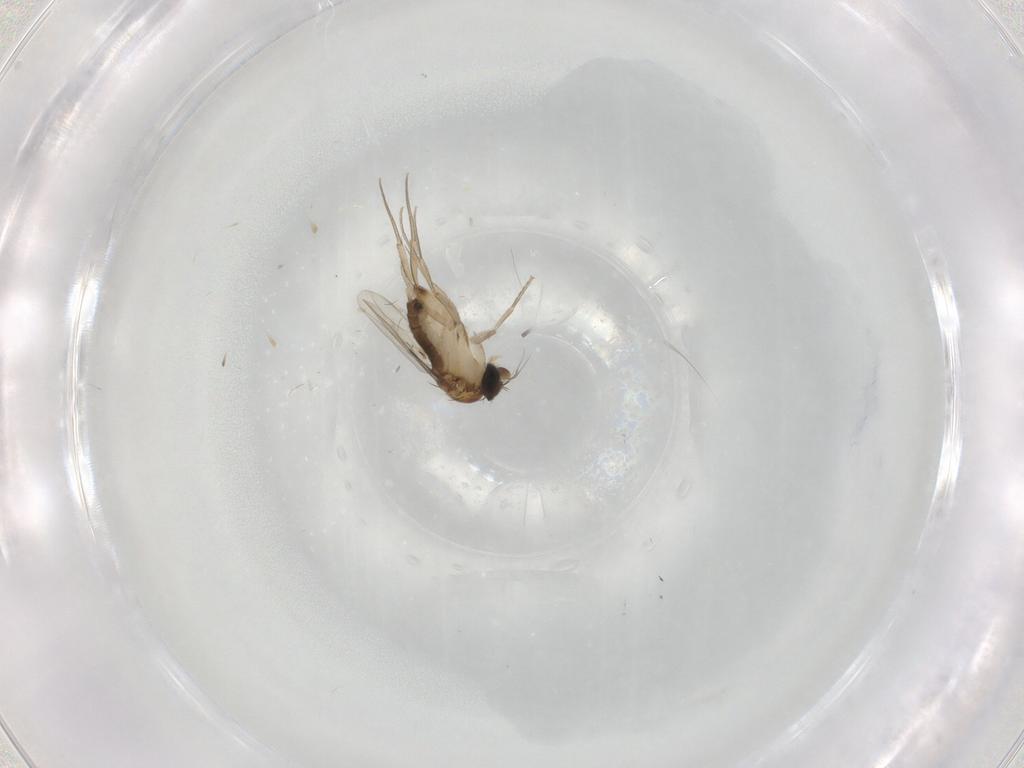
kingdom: Animalia
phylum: Arthropoda
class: Insecta
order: Diptera
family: Phoridae
